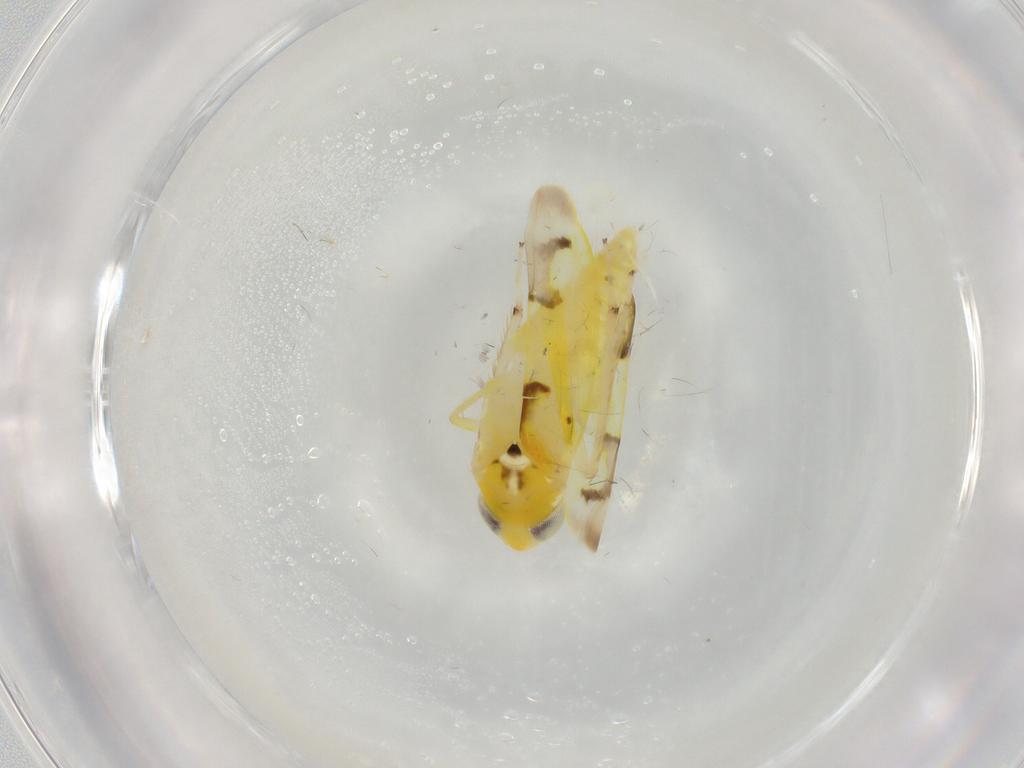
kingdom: Animalia
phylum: Arthropoda
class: Insecta
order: Hemiptera
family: Cicadellidae
